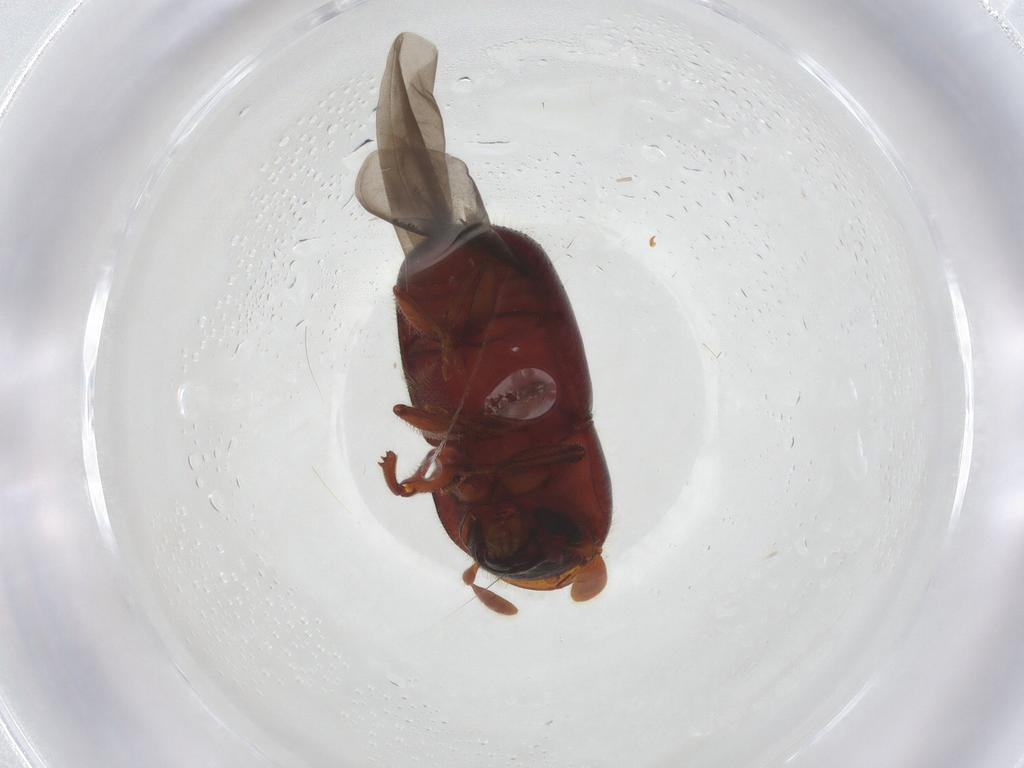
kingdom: Animalia
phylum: Arthropoda
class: Insecta
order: Coleoptera
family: Curculionidae
